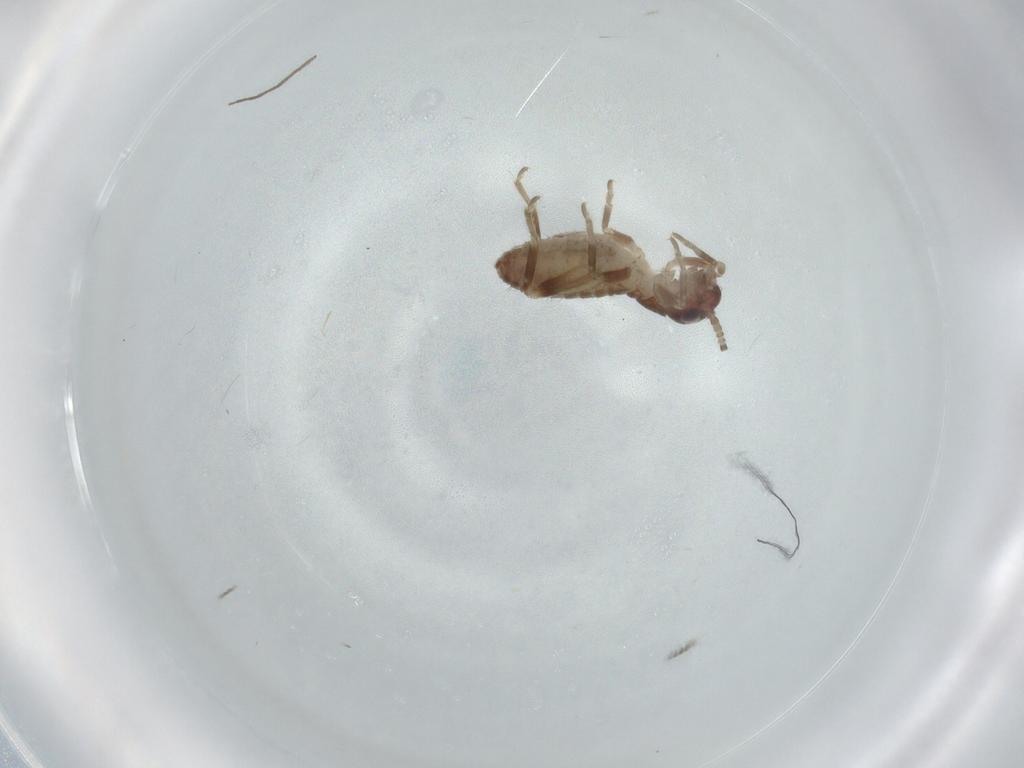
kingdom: Animalia
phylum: Arthropoda
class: Insecta
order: Orthoptera
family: Mogoplistidae
